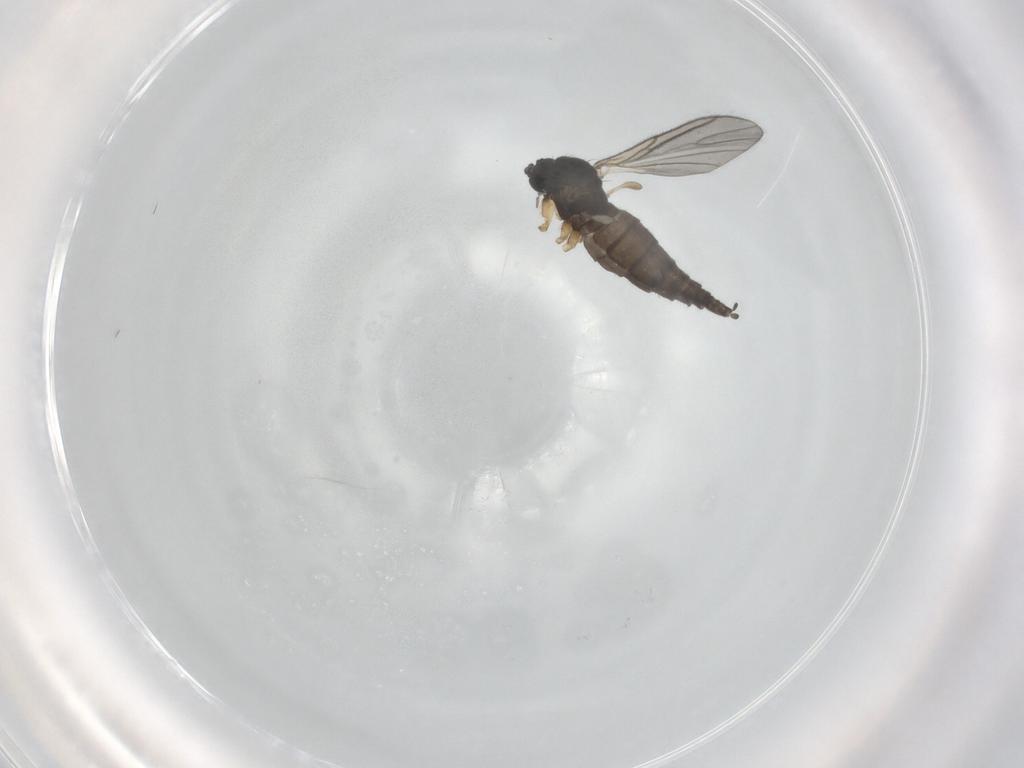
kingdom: Animalia
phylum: Arthropoda
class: Insecta
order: Diptera
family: Sciaridae
